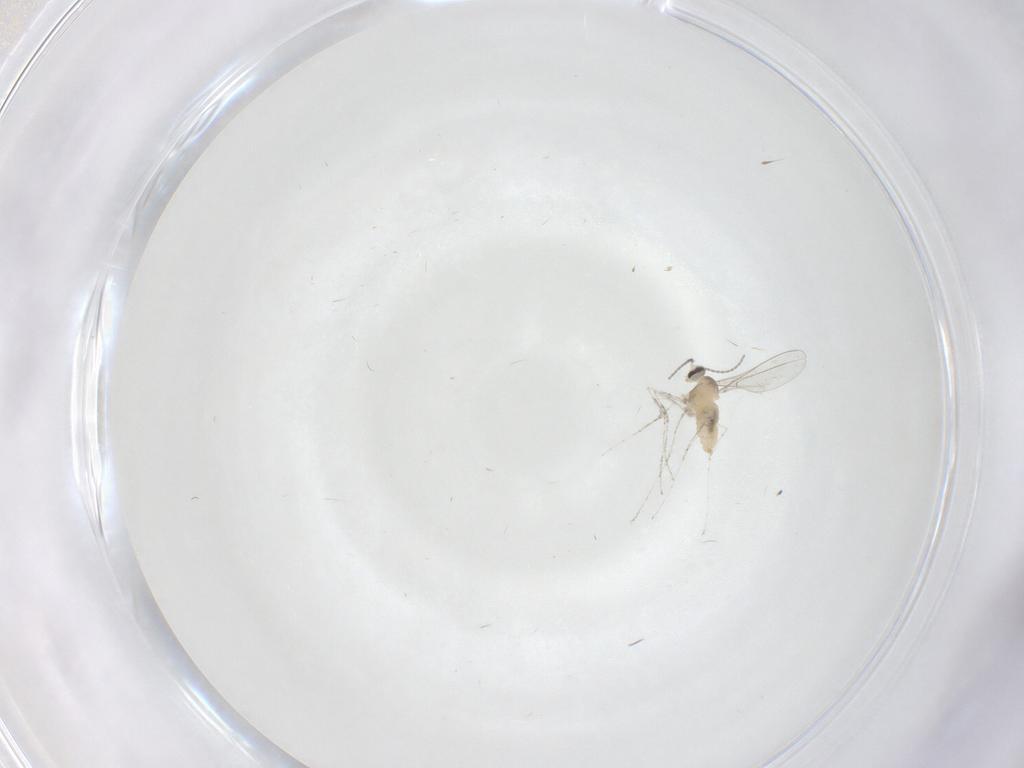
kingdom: Animalia
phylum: Arthropoda
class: Insecta
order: Diptera
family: Cecidomyiidae
